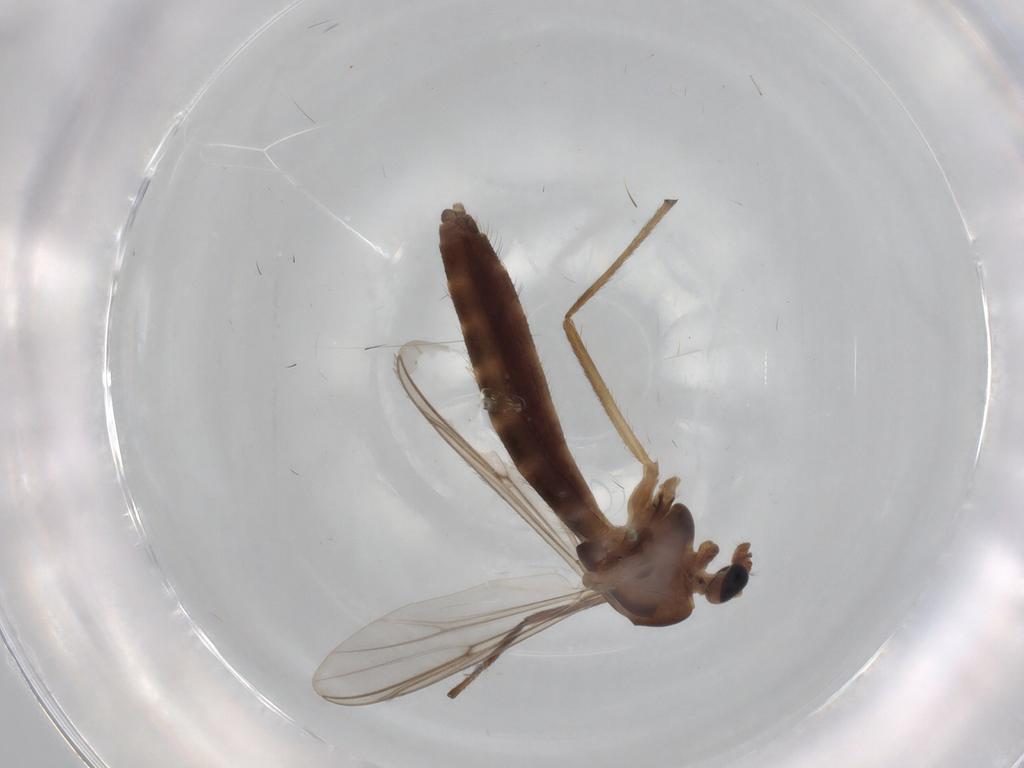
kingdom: Animalia
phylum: Arthropoda
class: Insecta
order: Diptera
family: Chironomidae
